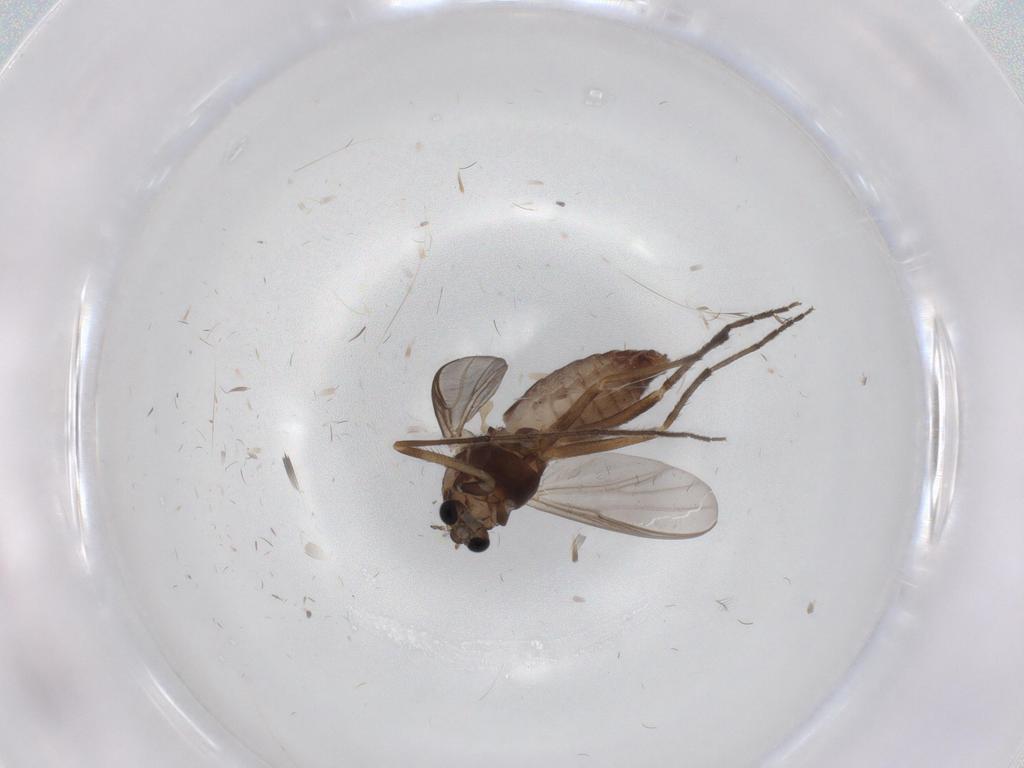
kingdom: Animalia
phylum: Arthropoda
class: Insecta
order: Diptera
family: Chironomidae
